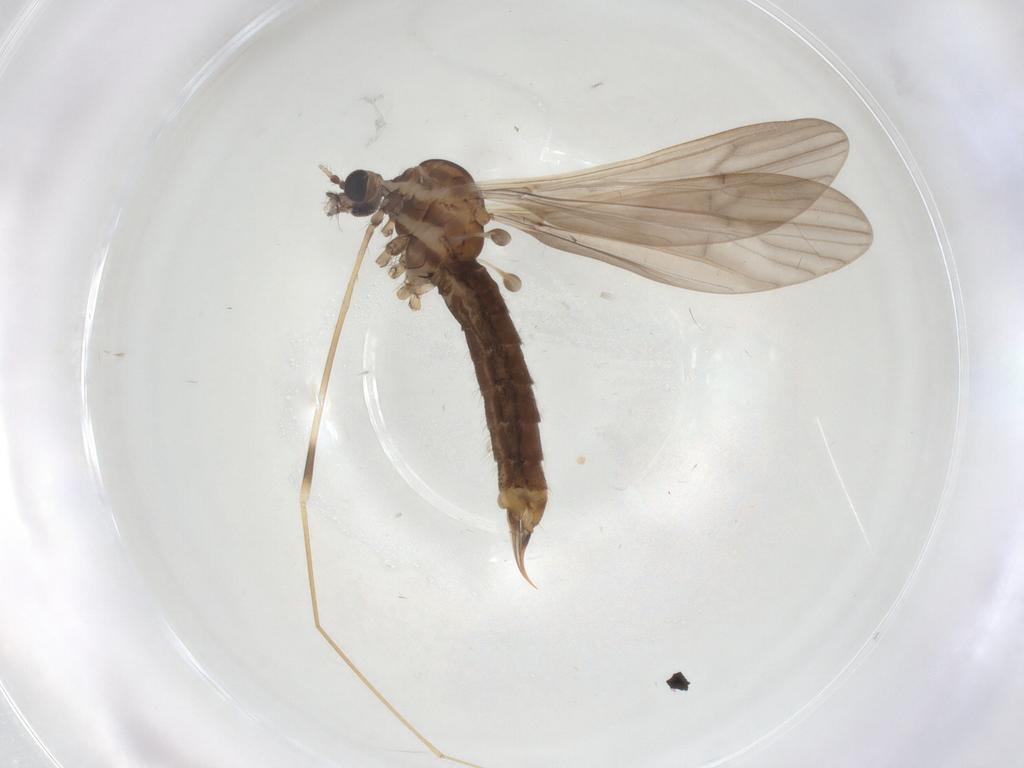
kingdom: Animalia
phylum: Arthropoda
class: Insecta
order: Diptera
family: Limoniidae
